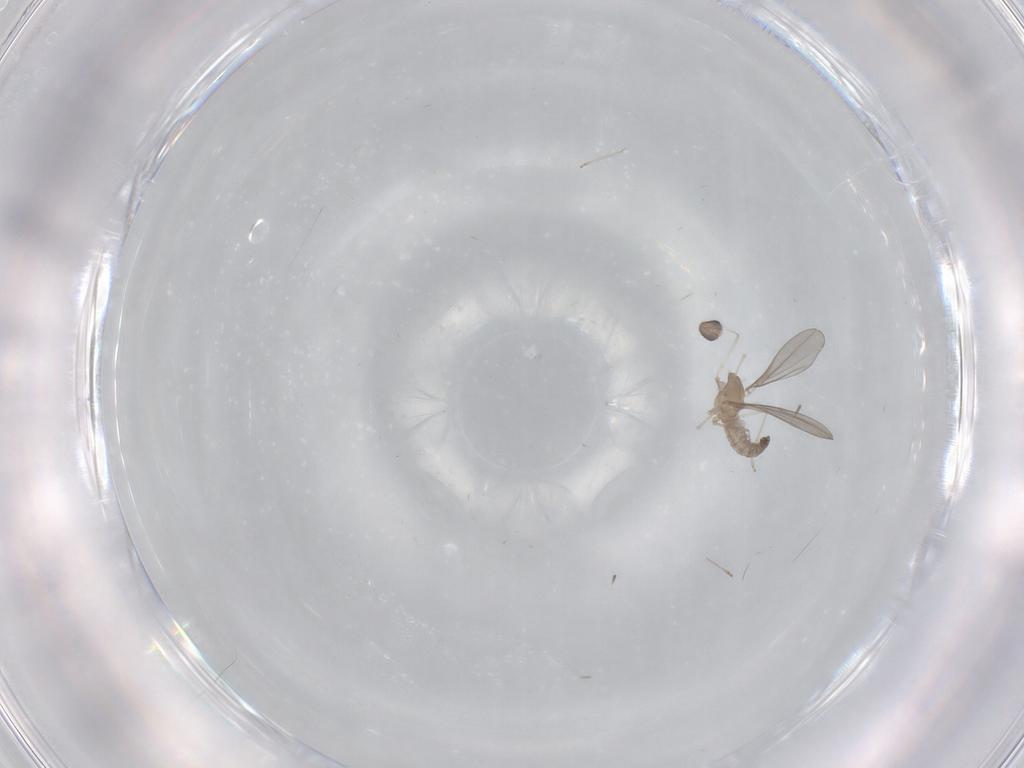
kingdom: Animalia
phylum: Arthropoda
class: Insecta
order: Diptera
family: Cecidomyiidae
